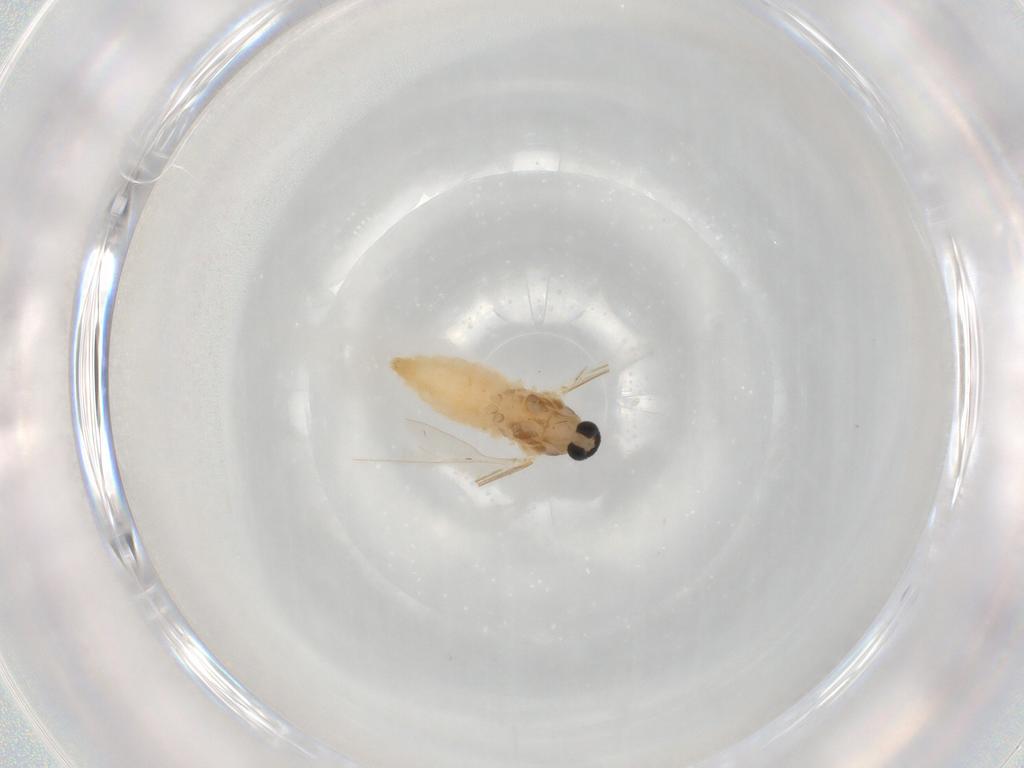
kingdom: Animalia
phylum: Arthropoda
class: Insecta
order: Diptera
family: Cecidomyiidae
